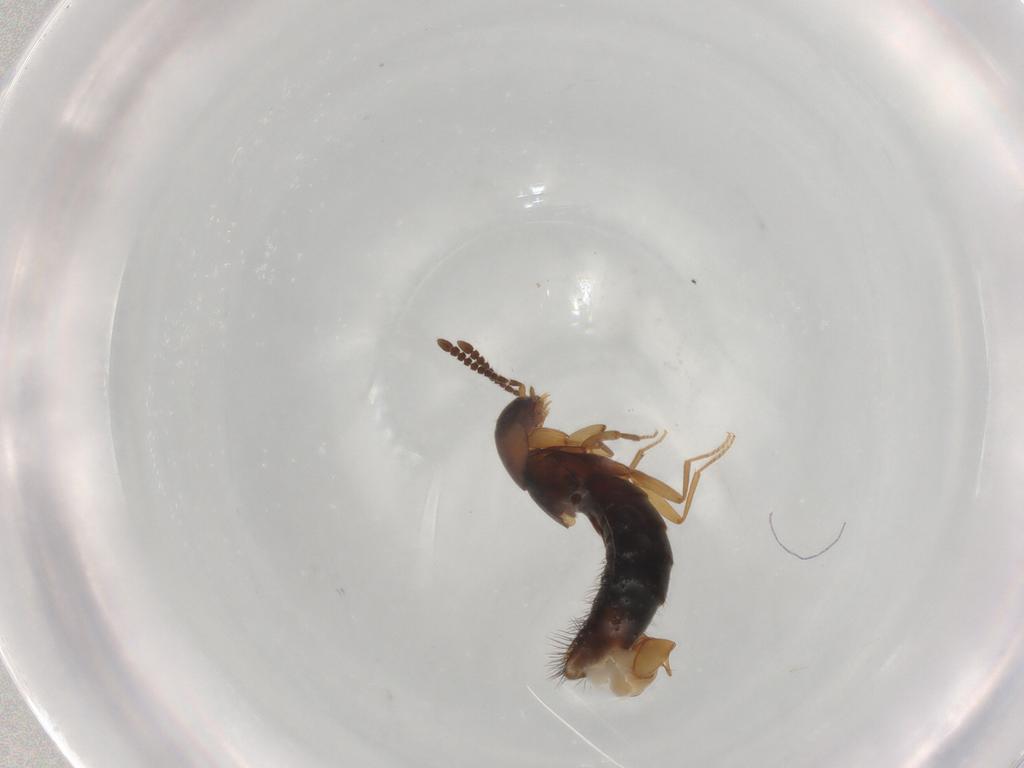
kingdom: Animalia
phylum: Arthropoda
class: Insecta
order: Coleoptera
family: Staphylinidae
